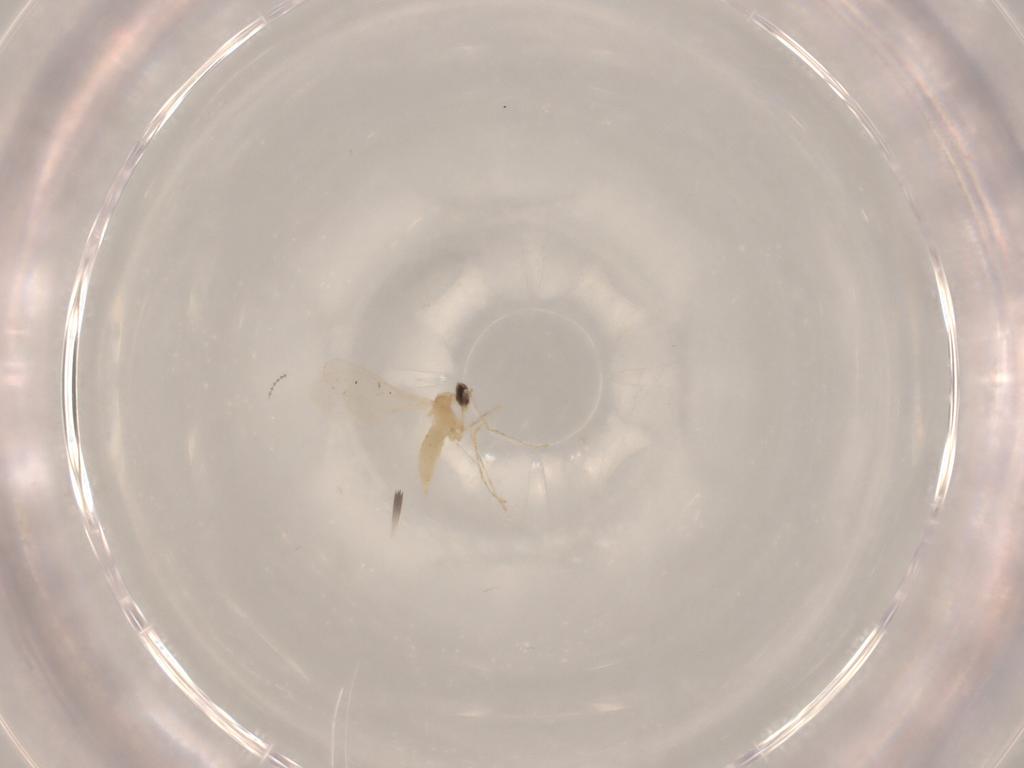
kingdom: Animalia
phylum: Arthropoda
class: Insecta
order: Diptera
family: Cecidomyiidae
